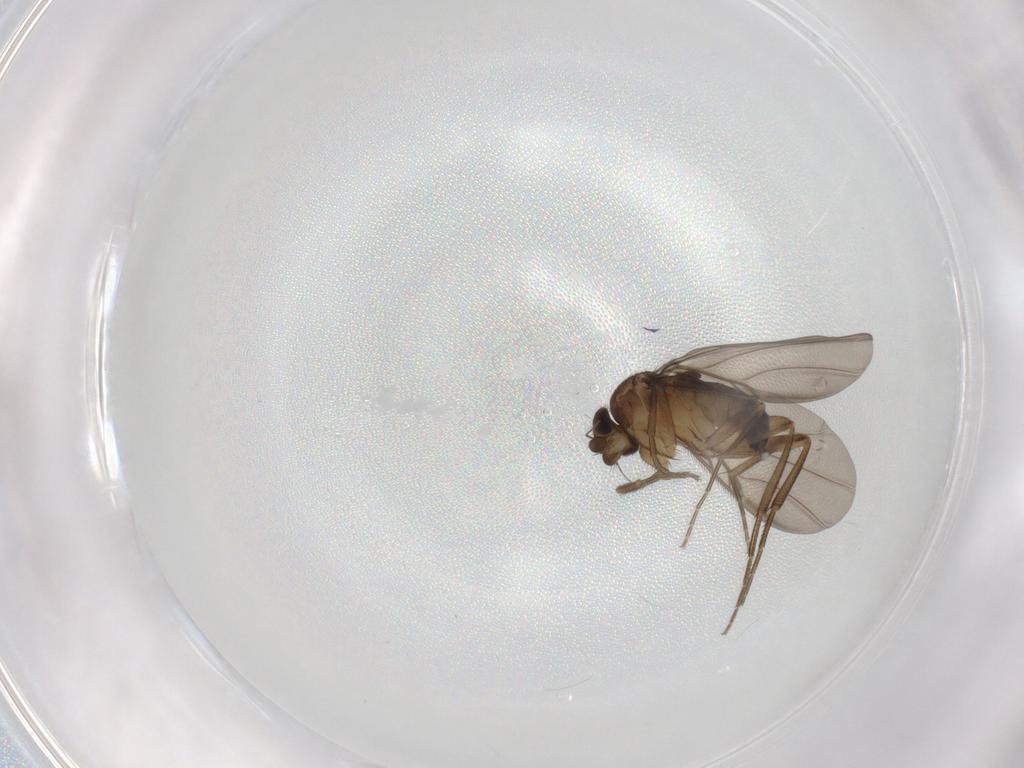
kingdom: Animalia
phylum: Arthropoda
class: Insecta
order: Diptera
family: Phoridae
